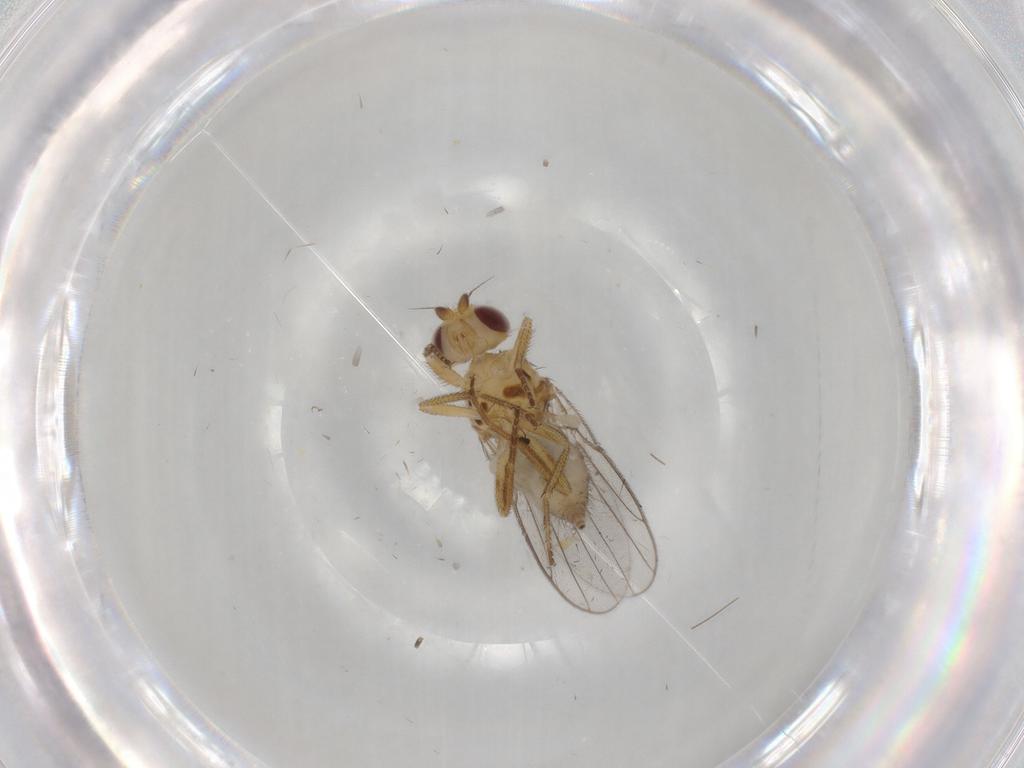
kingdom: Animalia
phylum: Arthropoda
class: Insecta
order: Diptera
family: Chloropidae
